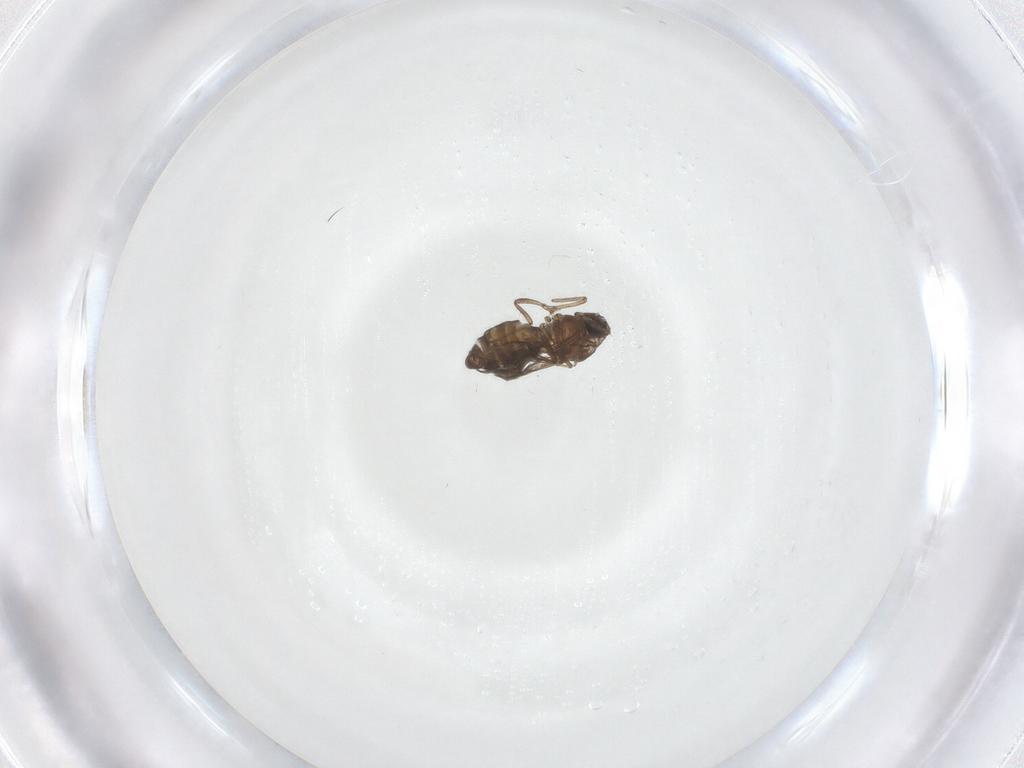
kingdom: Animalia
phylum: Arthropoda
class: Insecta
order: Diptera
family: Ceratopogonidae
